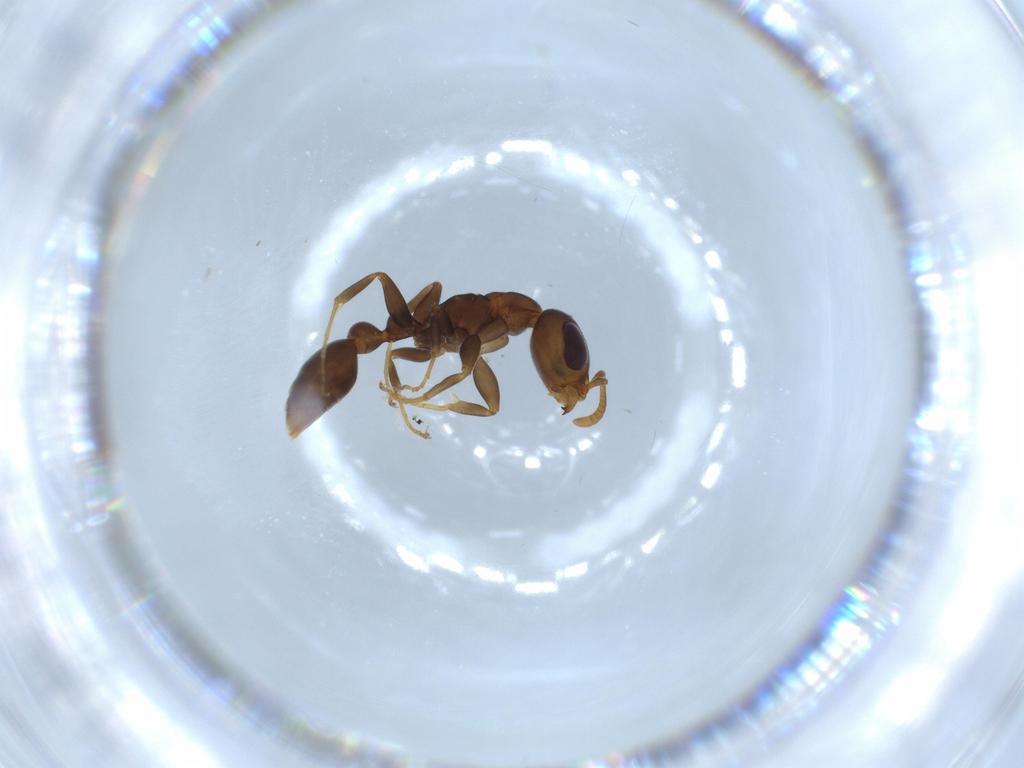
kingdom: Animalia
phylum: Arthropoda
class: Insecta
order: Hymenoptera
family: Formicidae
